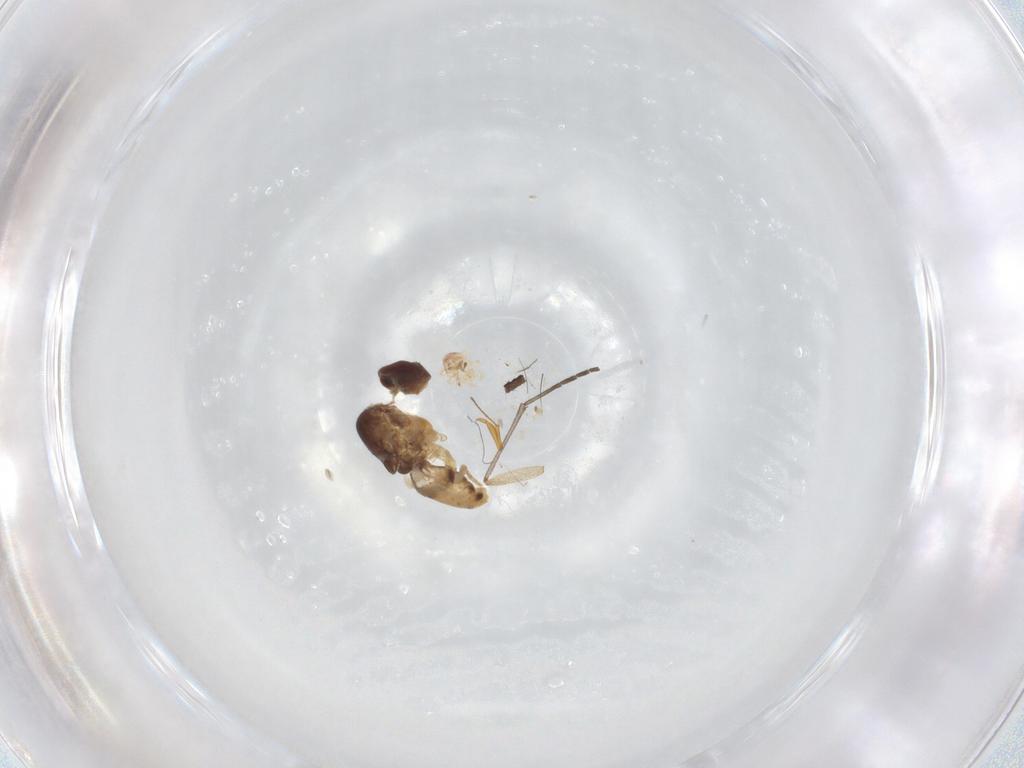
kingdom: Animalia
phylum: Arthropoda
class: Insecta
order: Diptera
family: Periscelididae
